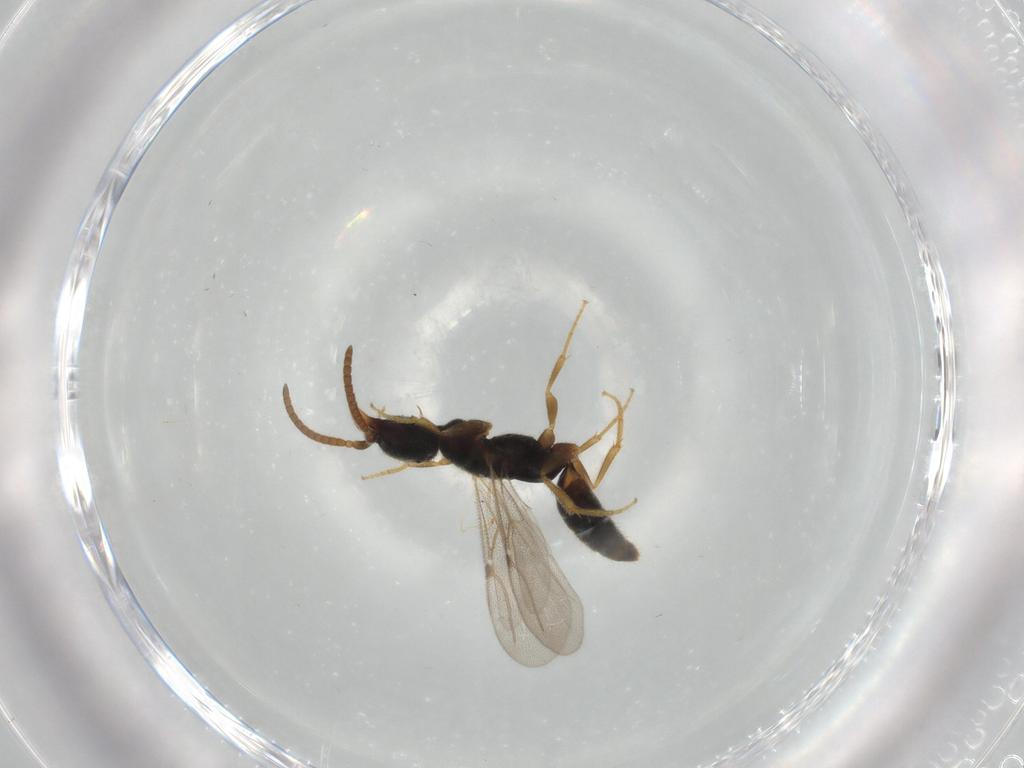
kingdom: Animalia
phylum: Arthropoda
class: Insecta
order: Hymenoptera
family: Bethylidae
